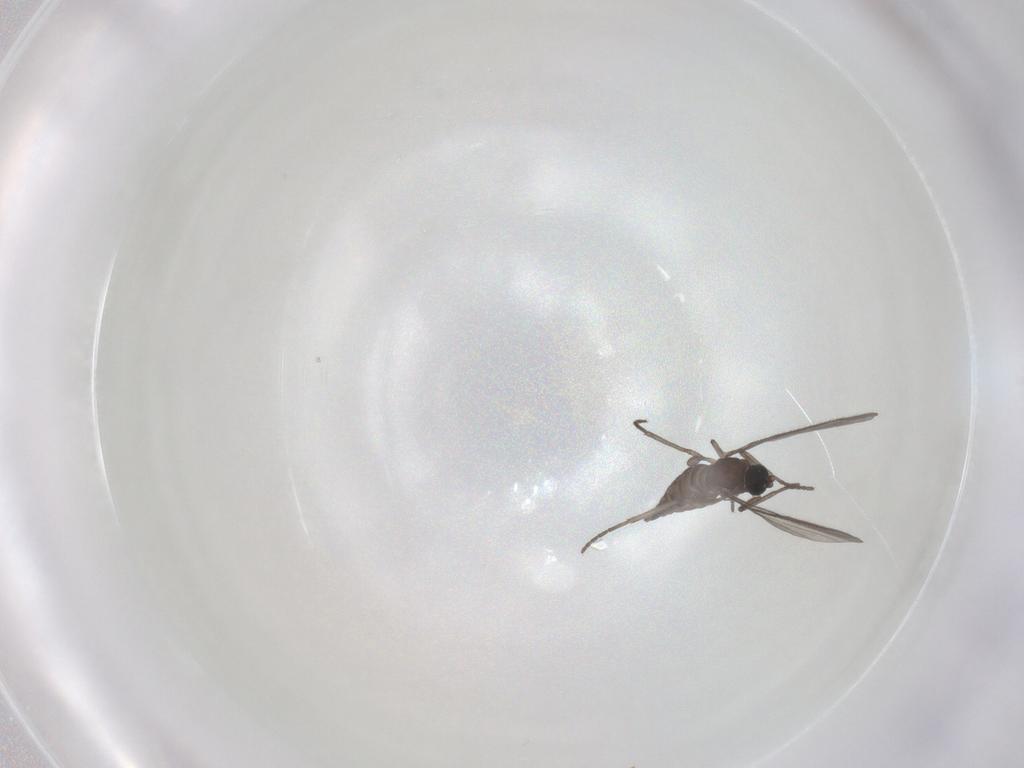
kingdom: Animalia
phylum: Arthropoda
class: Insecta
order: Diptera
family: Sciaridae
